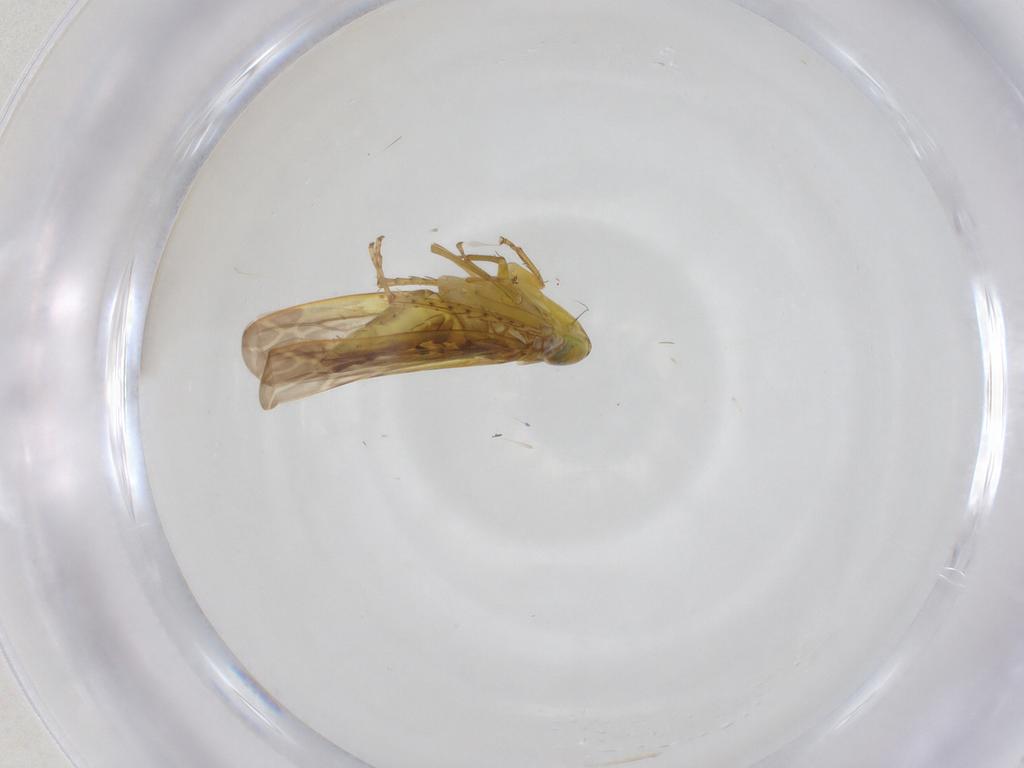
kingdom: Animalia
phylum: Arthropoda
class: Insecta
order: Hemiptera
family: Cicadellidae
